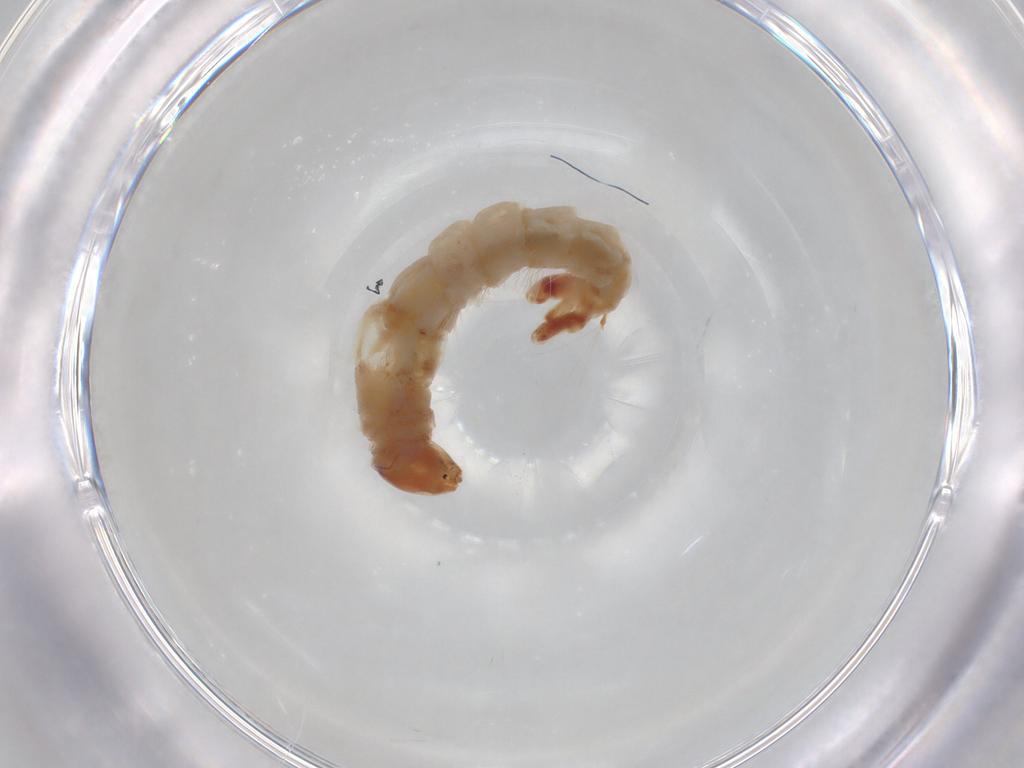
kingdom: Animalia
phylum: Arthropoda
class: Insecta
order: Diptera
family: Chironomidae
